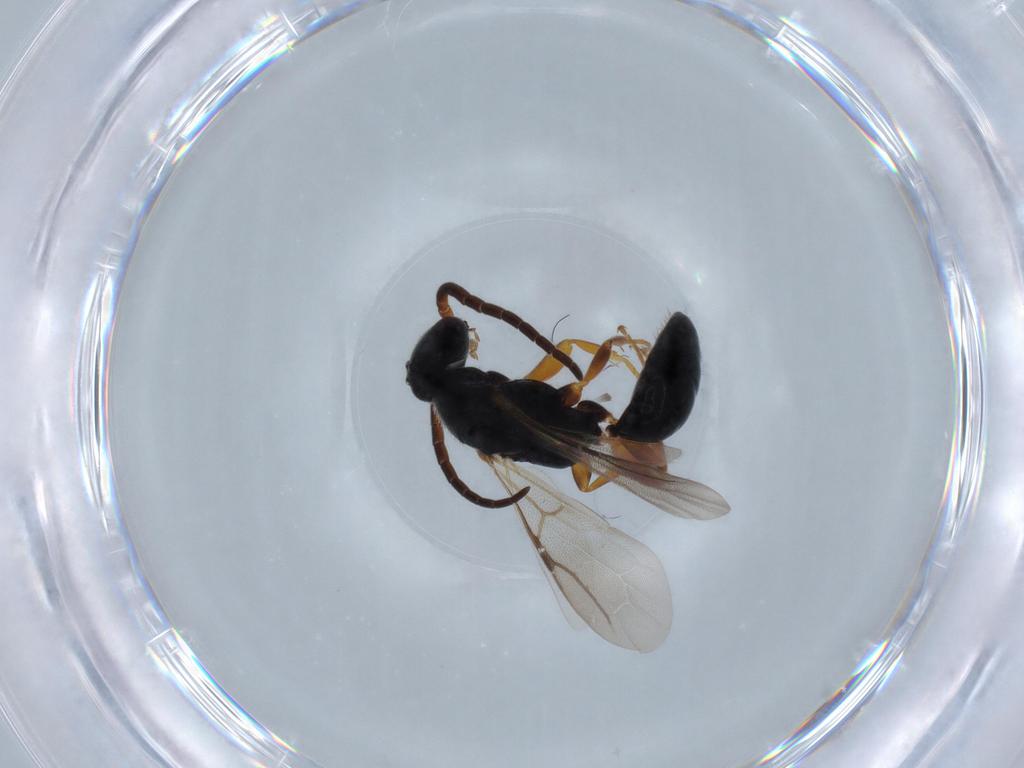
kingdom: Animalia
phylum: Arthropoda
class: Insecta
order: Hymenoptera
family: Bethylidae
